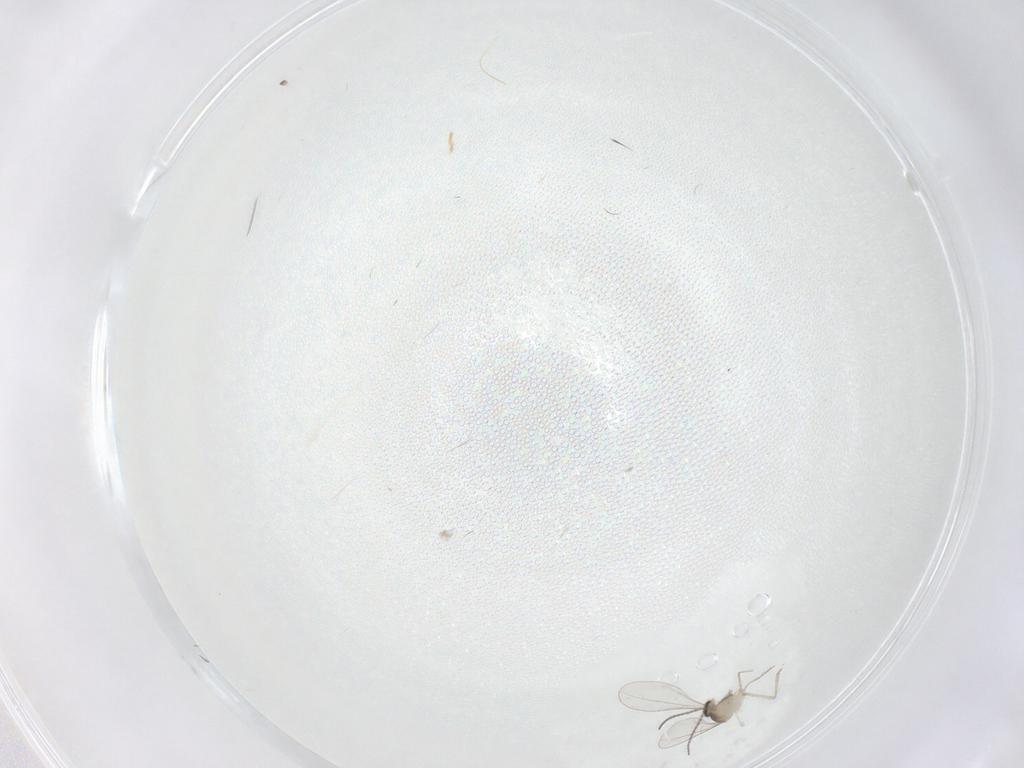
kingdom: Animalia
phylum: Arthropoda
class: Insecta
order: Diptera
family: Cecidomyiidae
